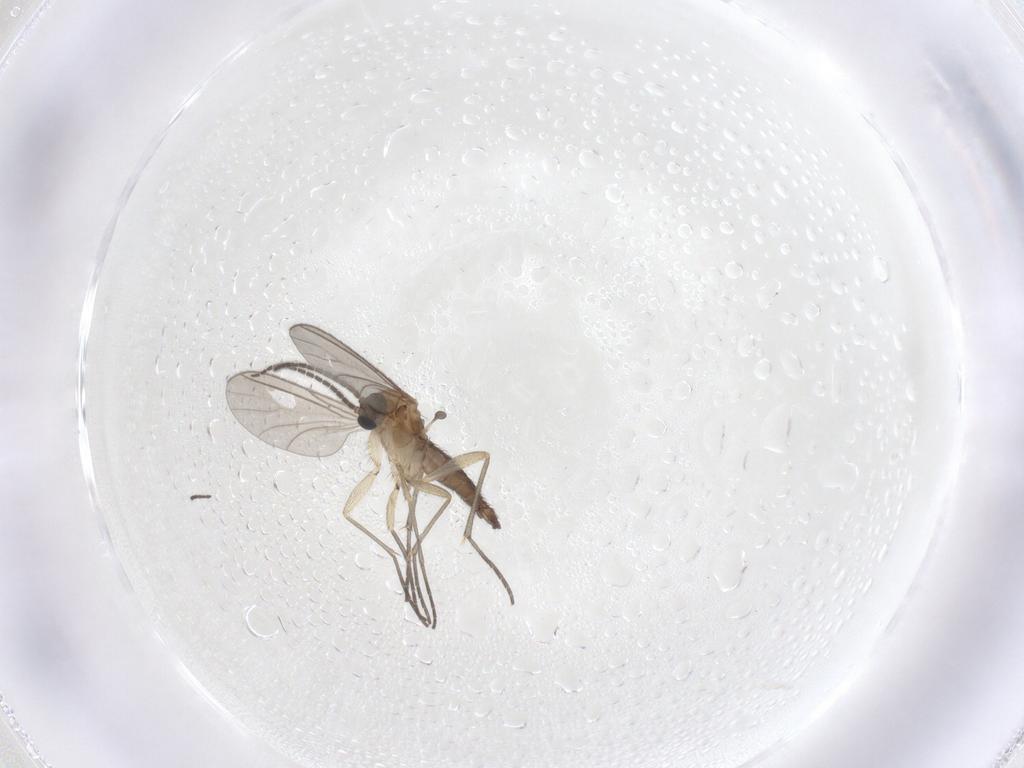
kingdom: Animalia
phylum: Arthropoda
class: Insecta
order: Diptera
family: Sciaridae
